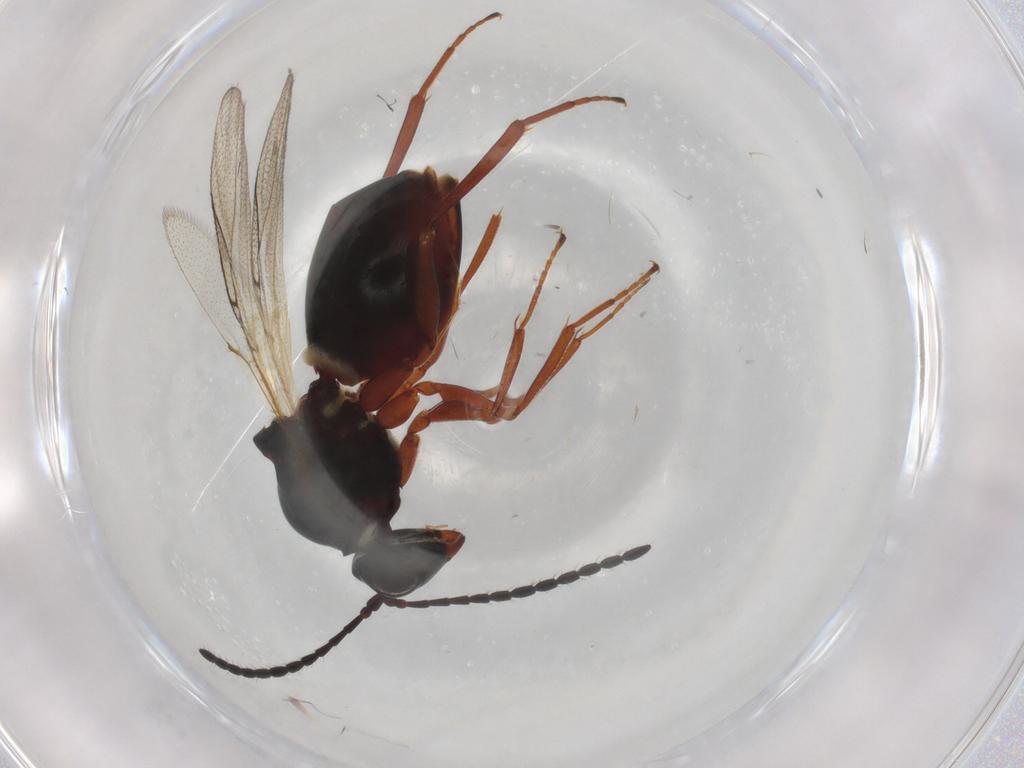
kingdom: Animalia
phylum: Arthropoda
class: Insecta
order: Hymenoptera
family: Figitidae
